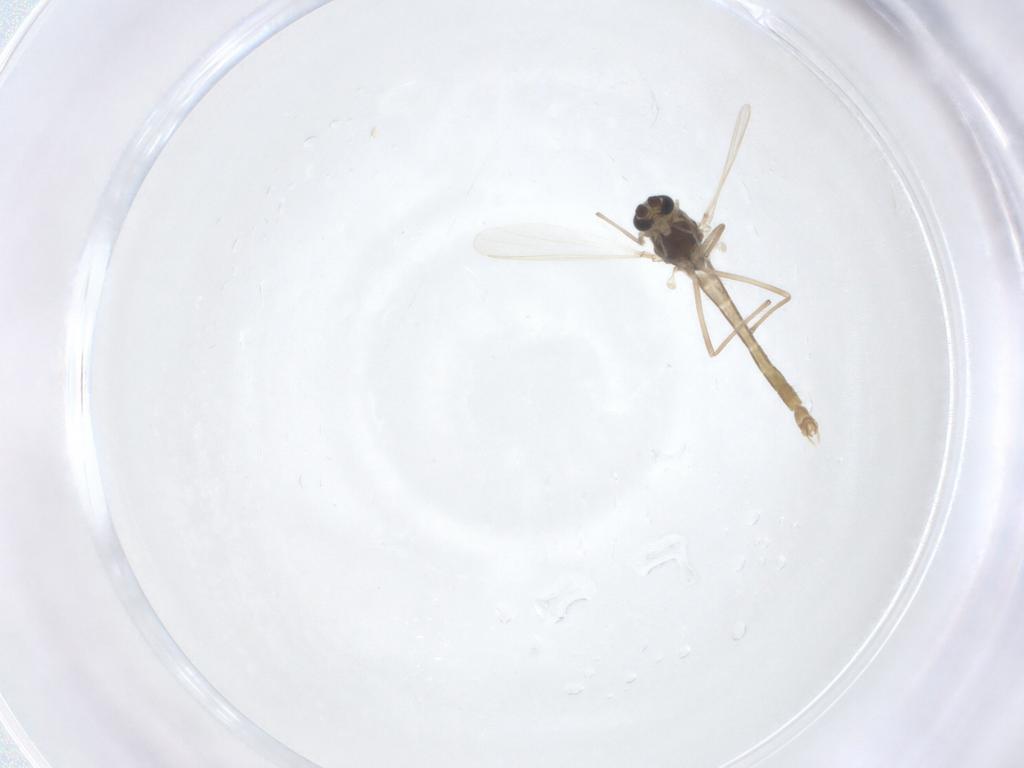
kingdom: Animalia
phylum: Arthropoda
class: Insecta
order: Diptera
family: Chironomidae
